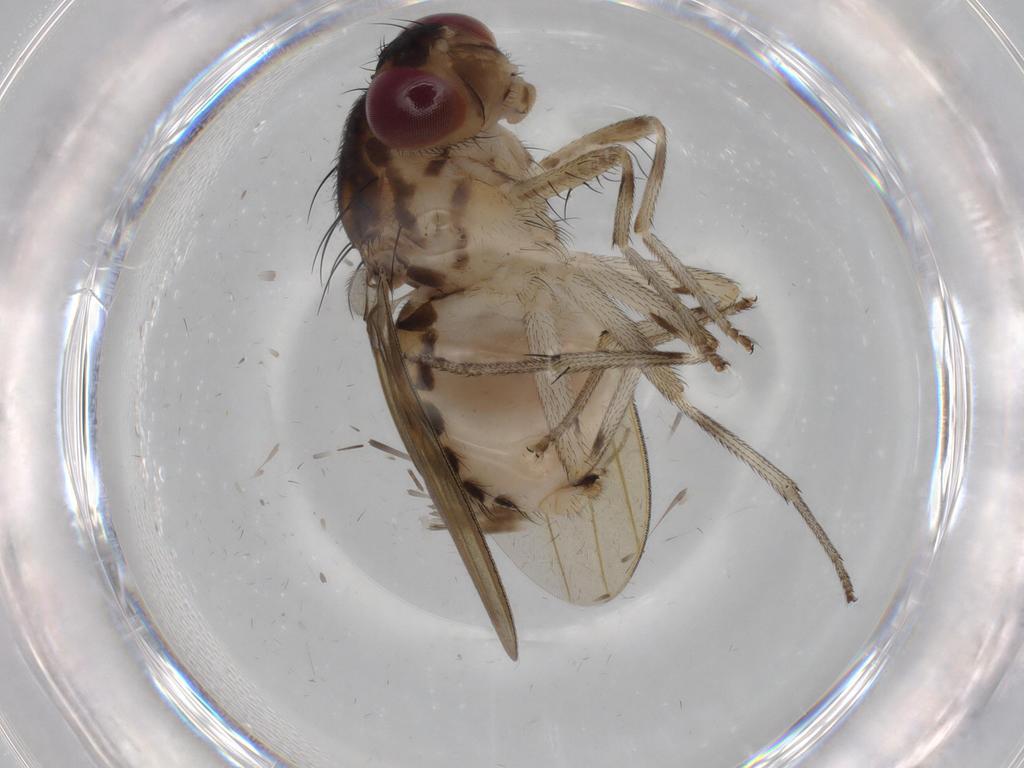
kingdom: Animalia
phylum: Arthropoda
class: Insecta
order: Diptera
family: Psychodidae
